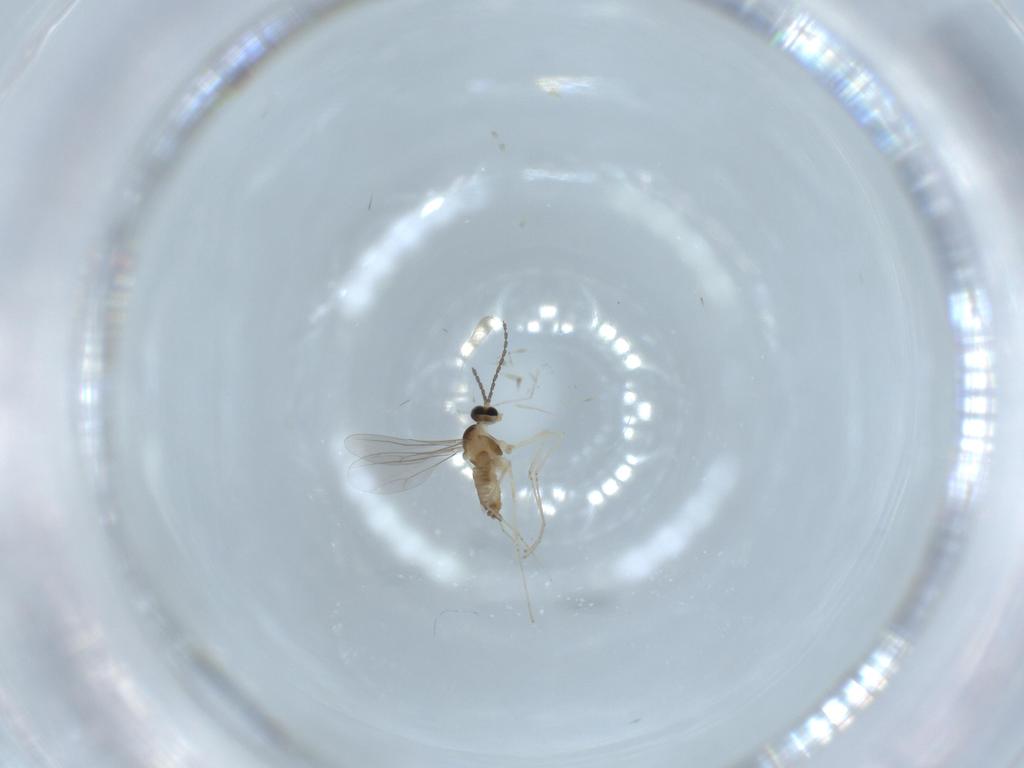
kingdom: Animalia
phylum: Arthropoda
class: Insecta
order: Diptera
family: Cecidomyiidae
